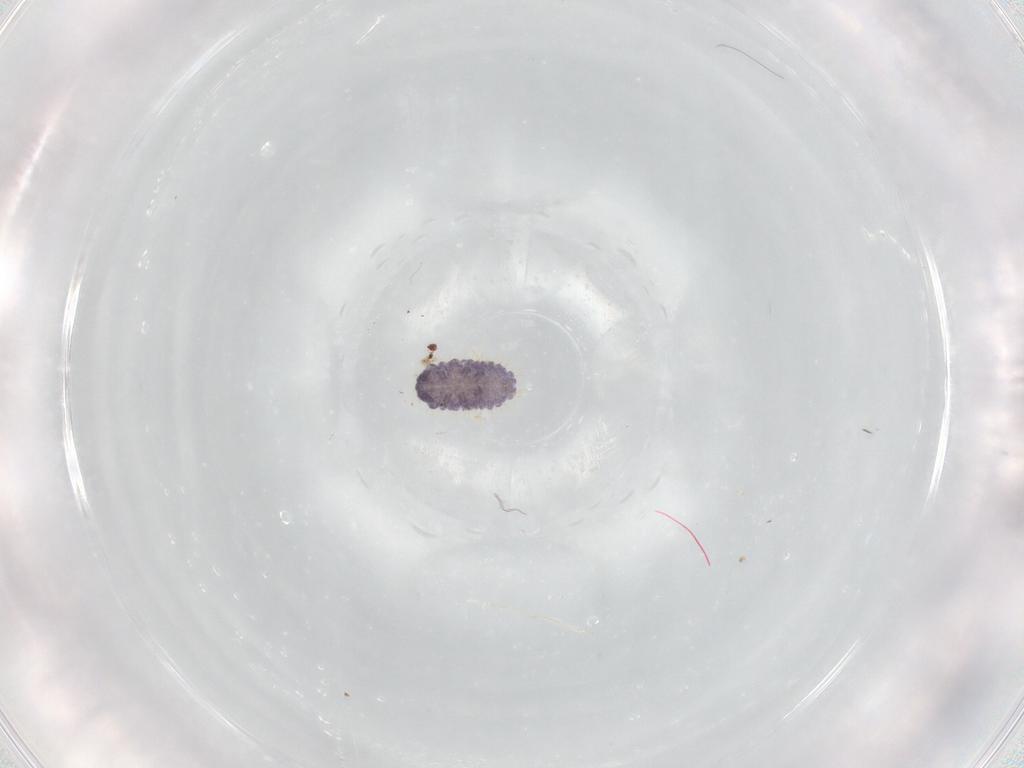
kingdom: Animalia
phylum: Arthropoda
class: Collembola
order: Poduromorpha
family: Neanuridae
